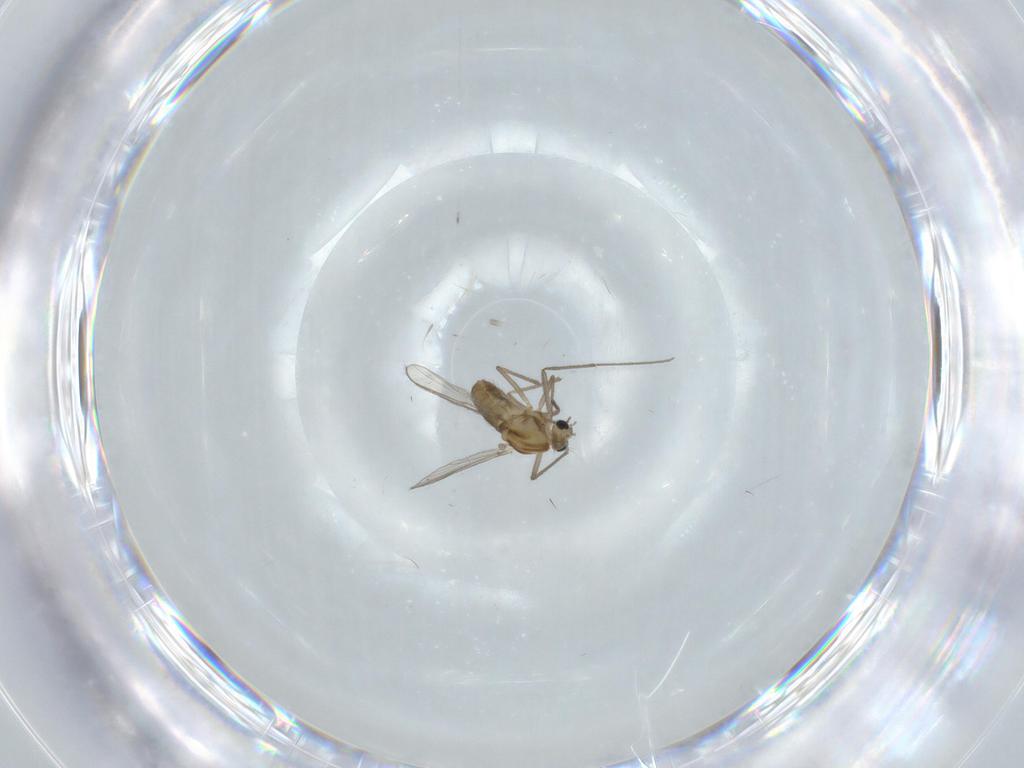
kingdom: Animalia
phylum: Arthropoda
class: Insecta
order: Diptera
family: Chironomidae
